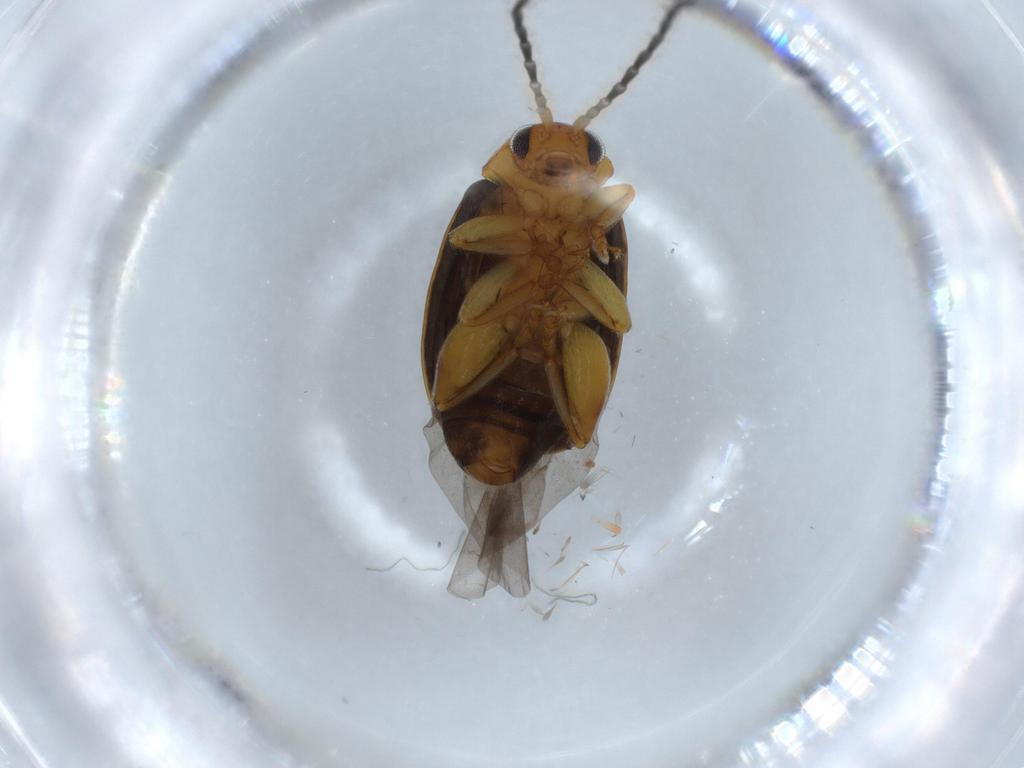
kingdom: Animalia
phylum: Arthropoda
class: Insecta
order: Coleoptera
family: Chrysomelidae
